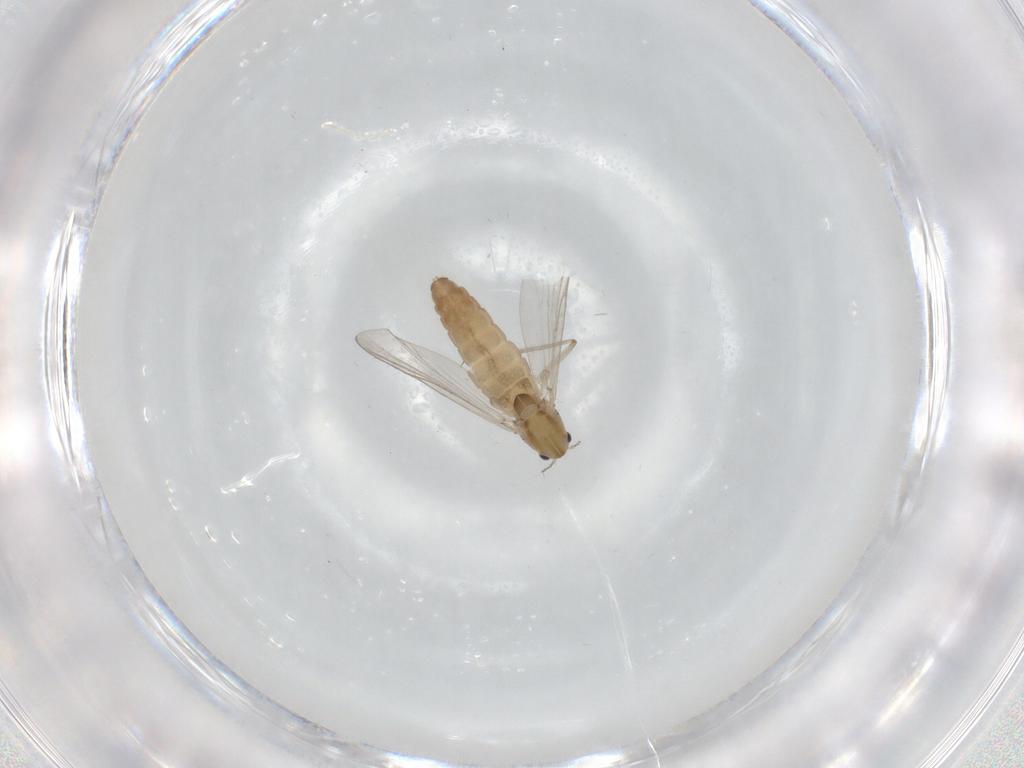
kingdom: Animalia
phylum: Arthropoda
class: Insecta
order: Diptera
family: Chironomidae
